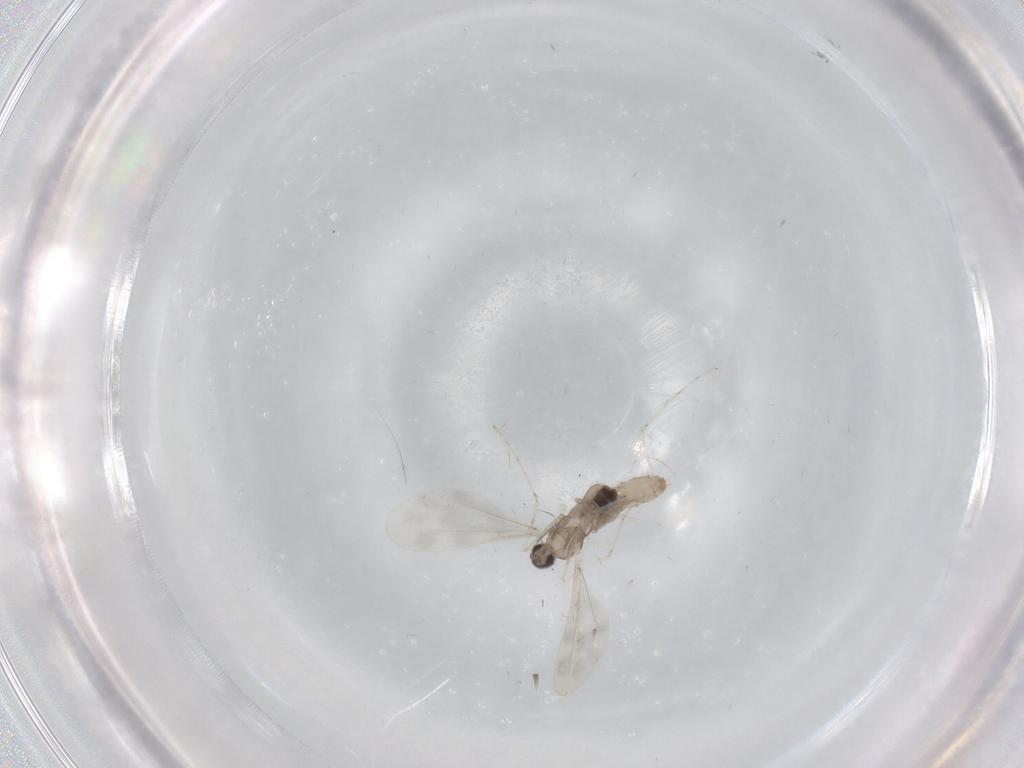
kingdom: Animalia
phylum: Arthropoda
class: Insecta
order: Diptera
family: Cecidomyiidae
